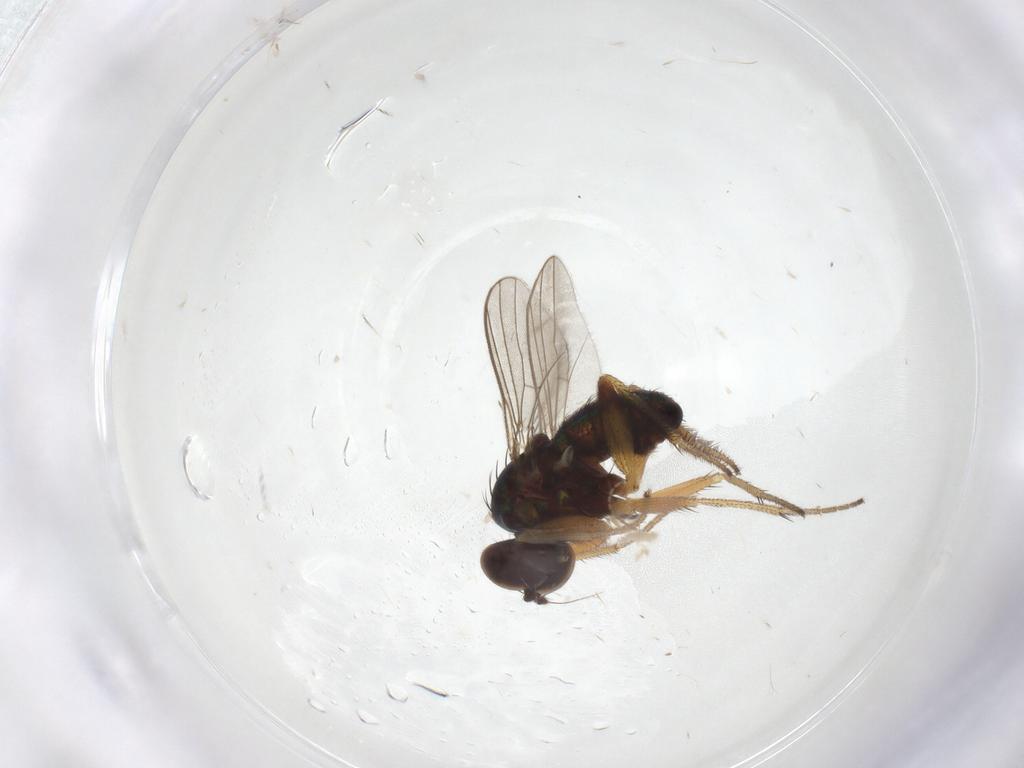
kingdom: Animalia
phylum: Arthropoda
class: Insecta
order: Diptera
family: Dolichopodidae
